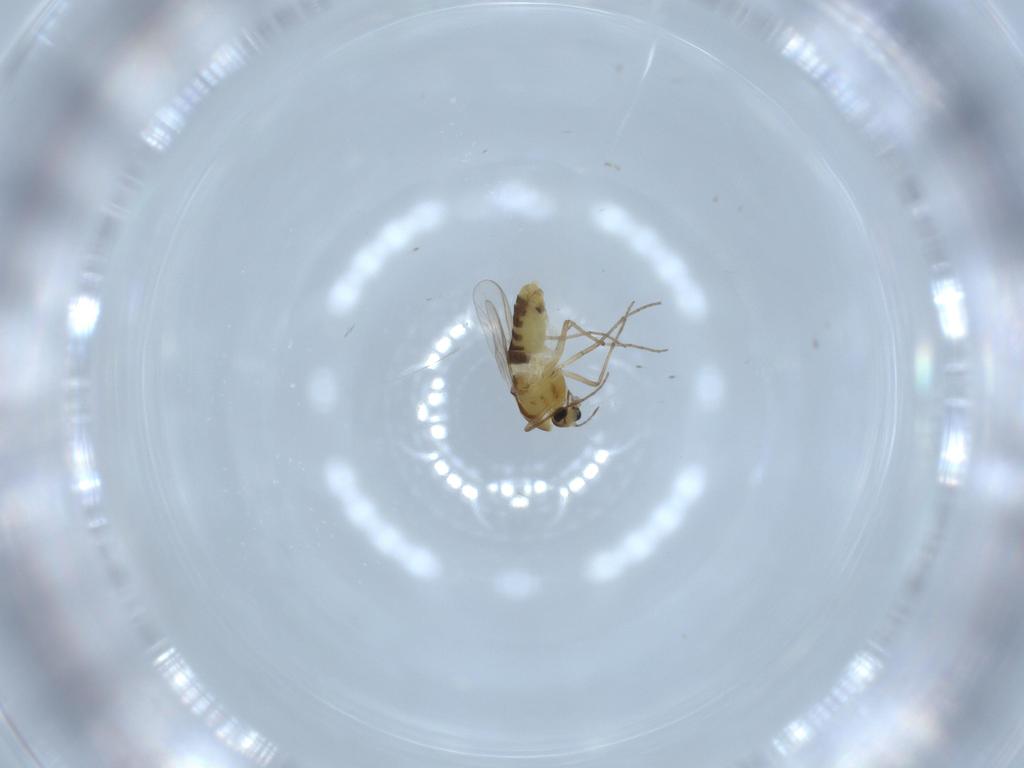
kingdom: Animalia
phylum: Arthropoda
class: Insecta
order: Diptera
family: Chironomidae
